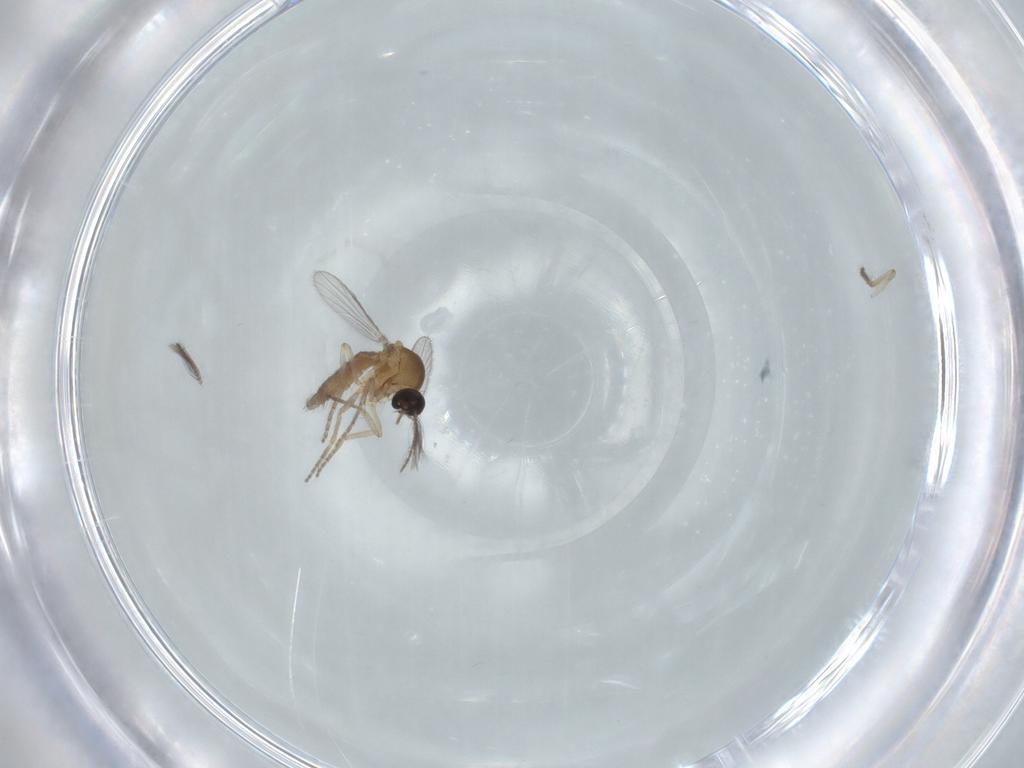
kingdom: Animalia
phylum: Arthropoda
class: Insecta
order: Diptera
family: Ceratopogonidae
